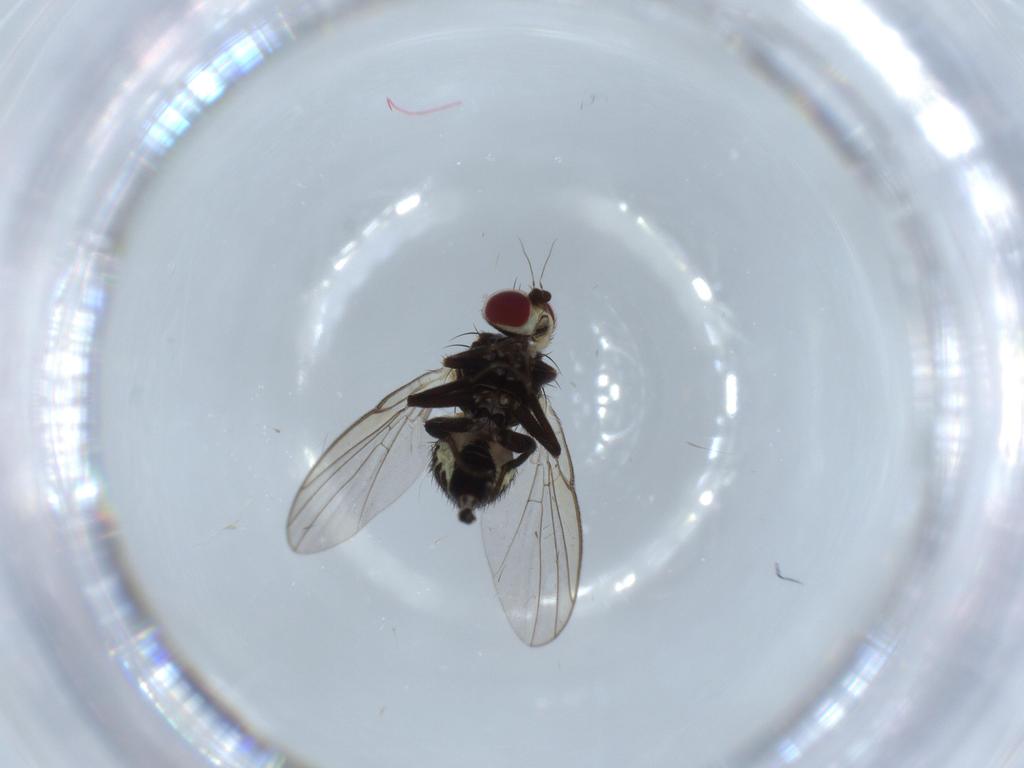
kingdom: Animalia
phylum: Arthropoda
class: Insecta
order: Diptera
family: Agromyzidae
